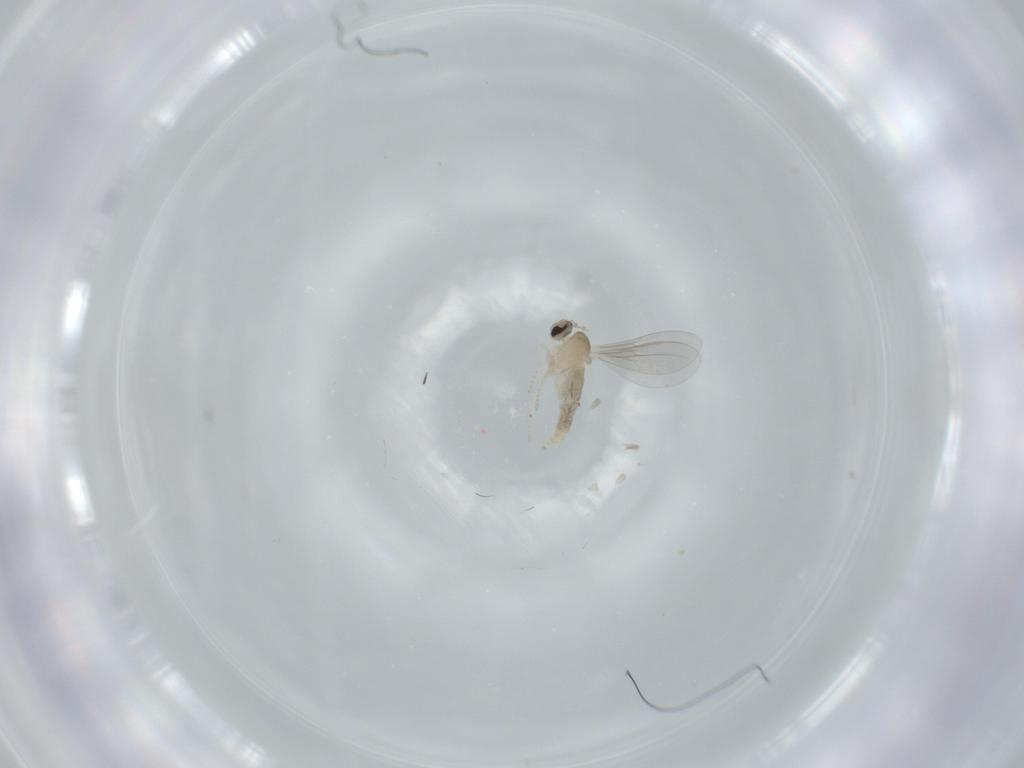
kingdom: Animalia
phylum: Arthropoda
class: Insecta
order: Diptera
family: Cecidomyiidae
